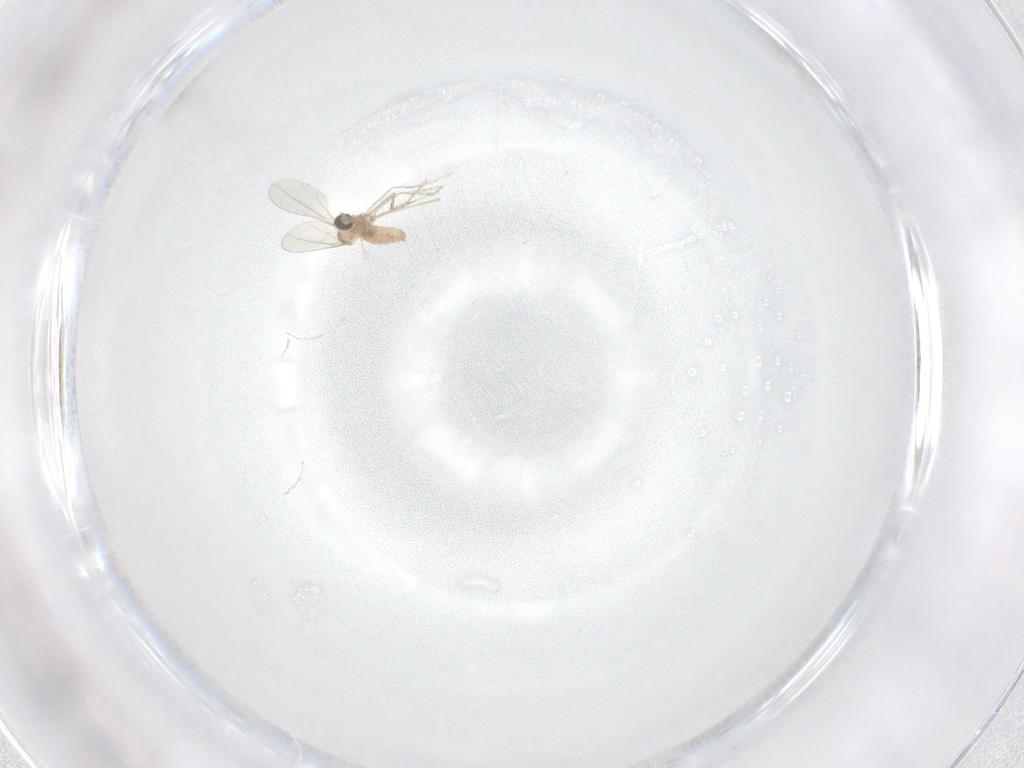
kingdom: Animalia
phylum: Arthropoda
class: Insecta
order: Diptera
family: Cecidomyiidae
